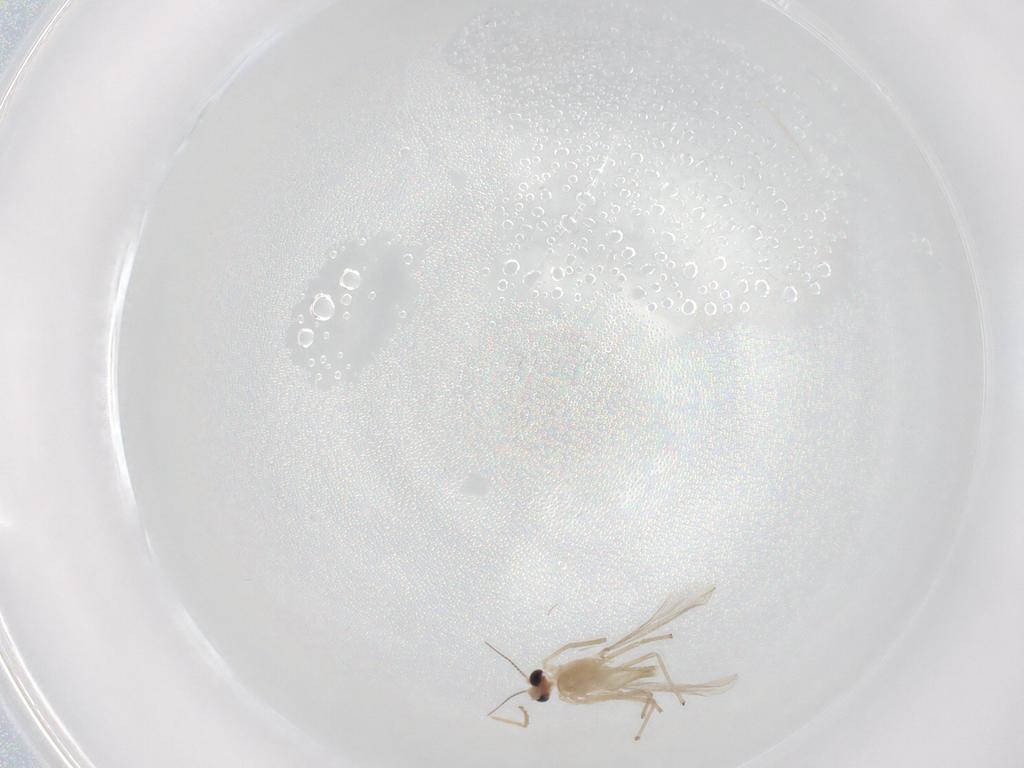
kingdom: Animalia
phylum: Arthropoda
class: Insecta
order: Diptera
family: Chironomidae
